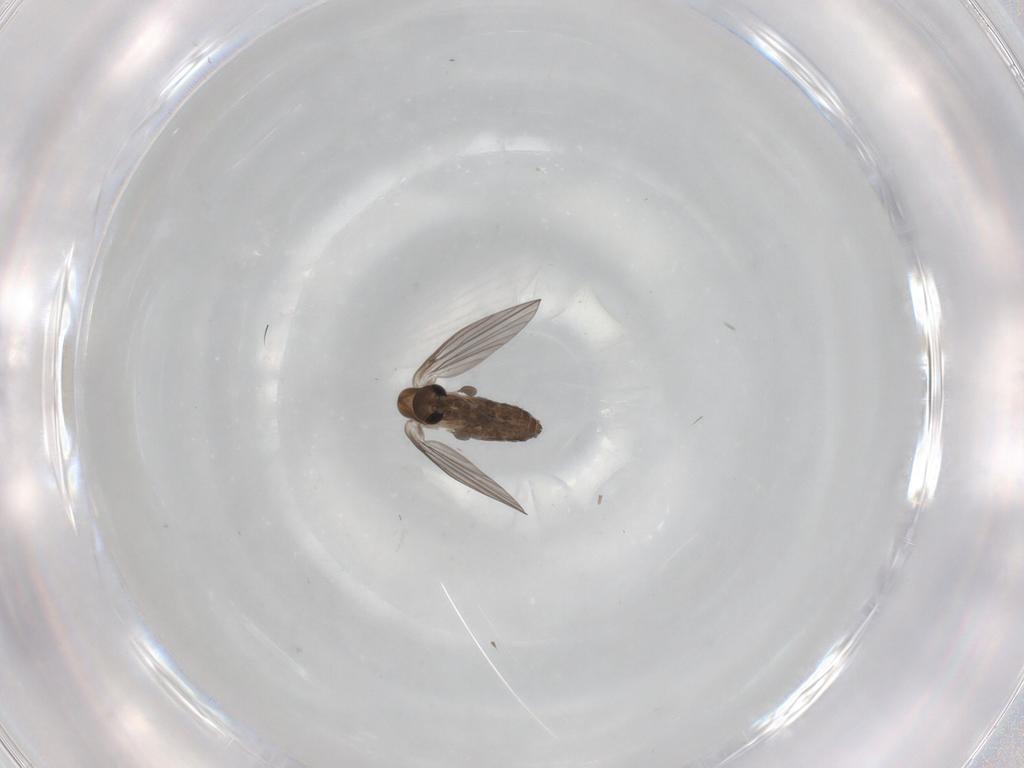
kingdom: Animalia
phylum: Arthropoda
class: Insecta
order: Diptera
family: Psychodidae
